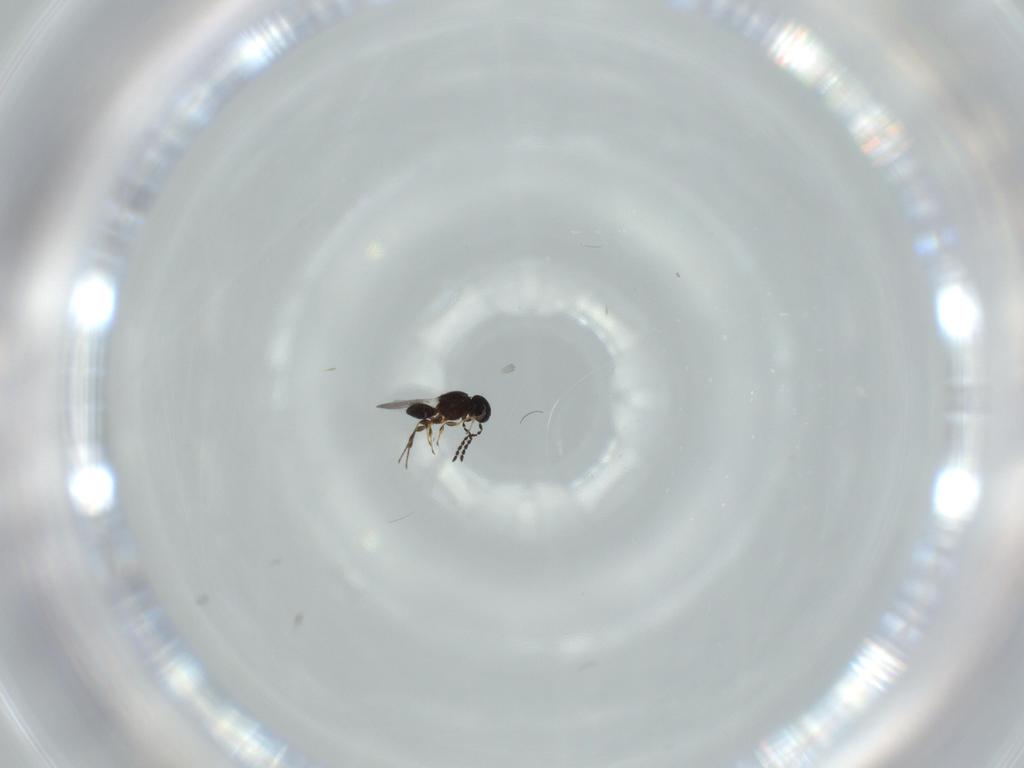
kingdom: Animalia
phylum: Arthropoda
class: Insecta
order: Hymenoptera
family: Platygastridae
